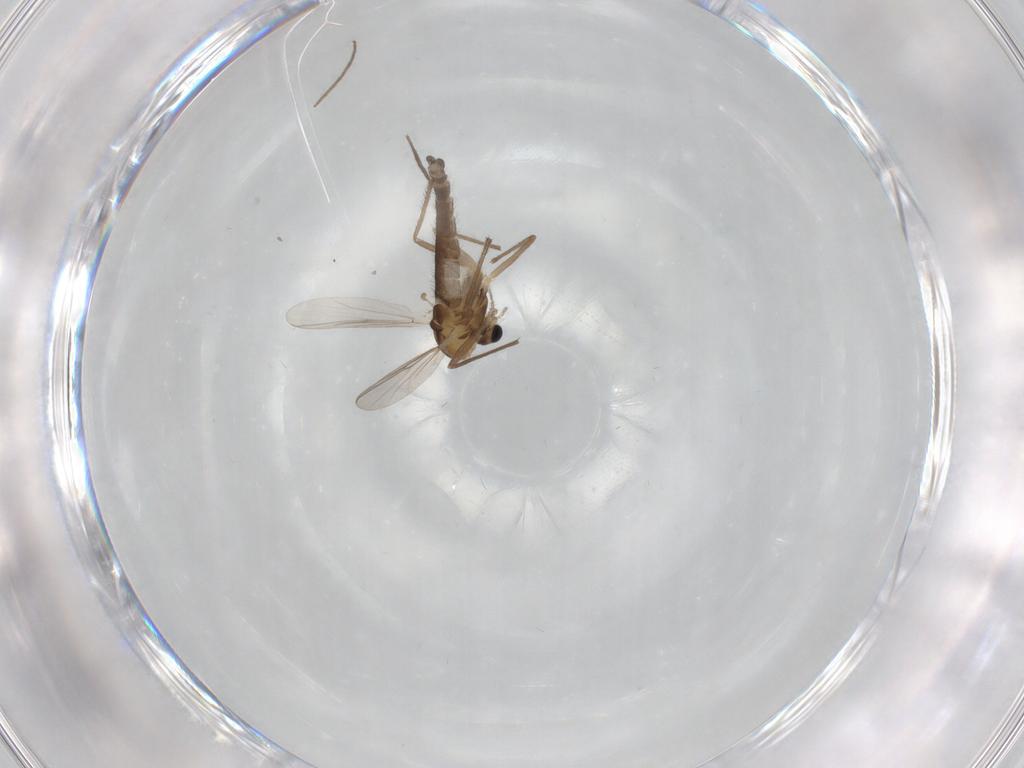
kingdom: Animalia
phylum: Arthropoda
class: Insecta
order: Diptera
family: Chironomidae
